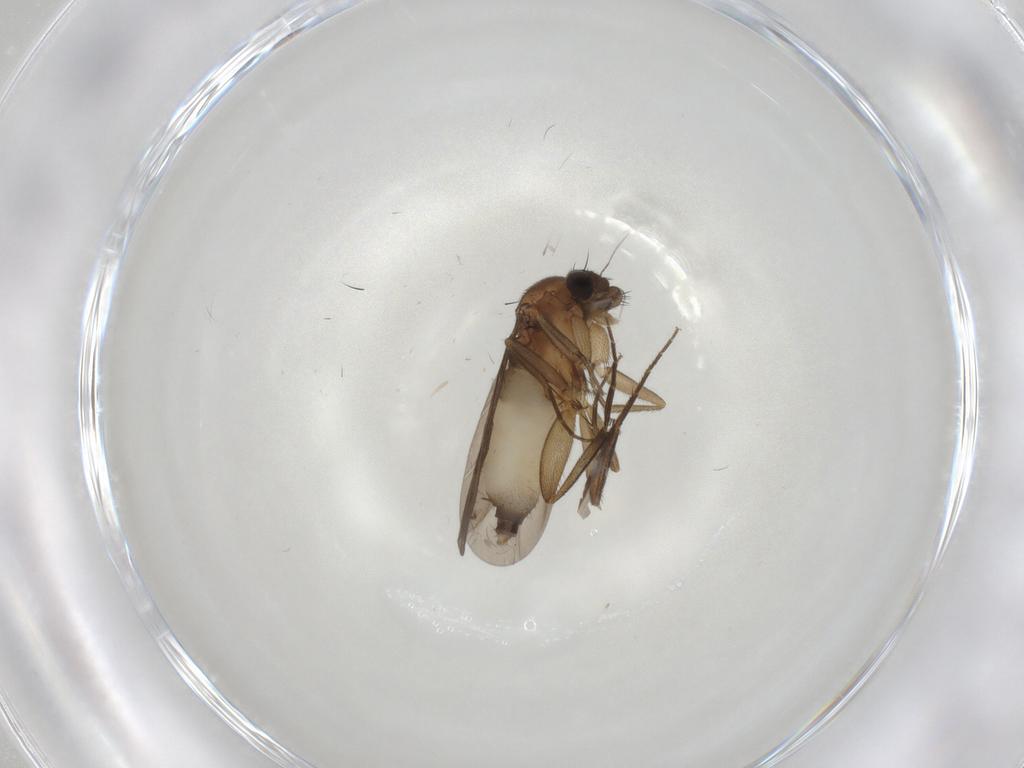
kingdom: Animalia
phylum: Arthropoda
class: Insecta
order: Diptera
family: Phoridae
